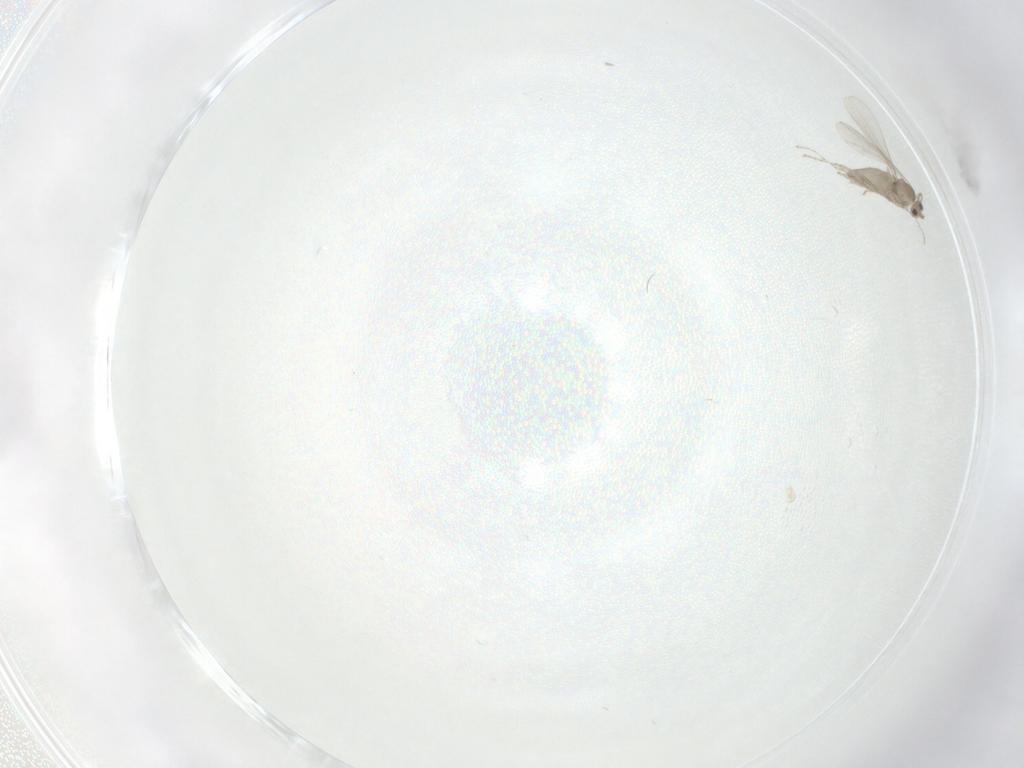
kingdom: Animalia
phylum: Arthropoda
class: Insecta
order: Diptera
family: Cecidomyiidae
